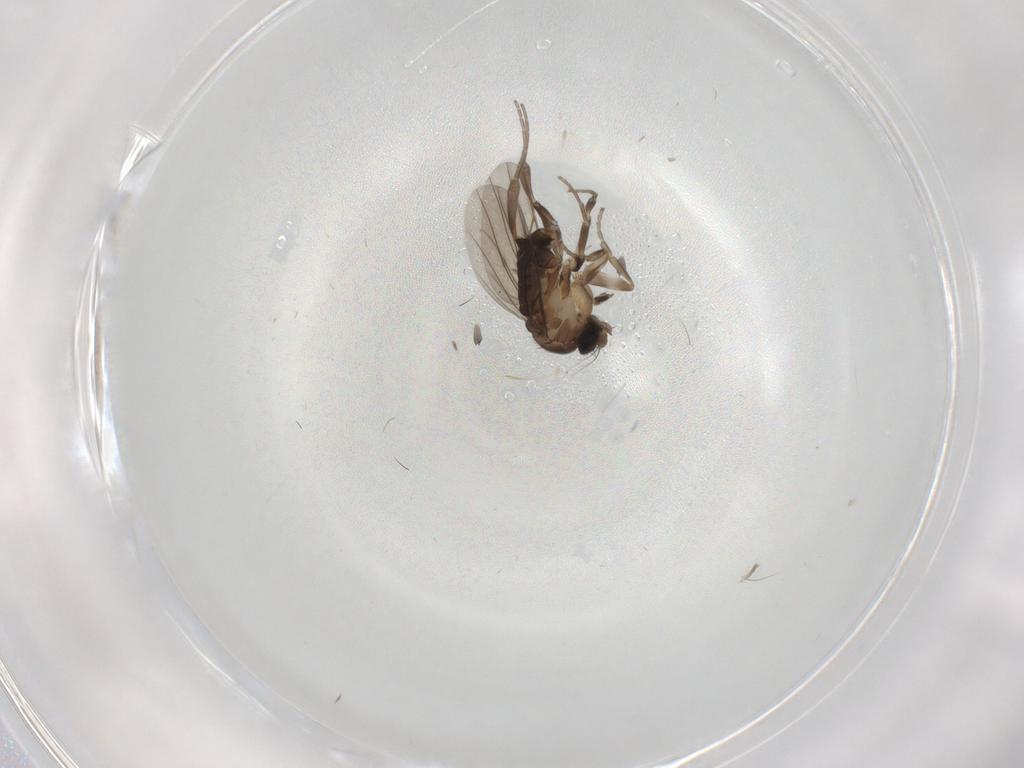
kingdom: Animalia
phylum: Arthropoda
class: Insecta
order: Diptera
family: Phoridae
